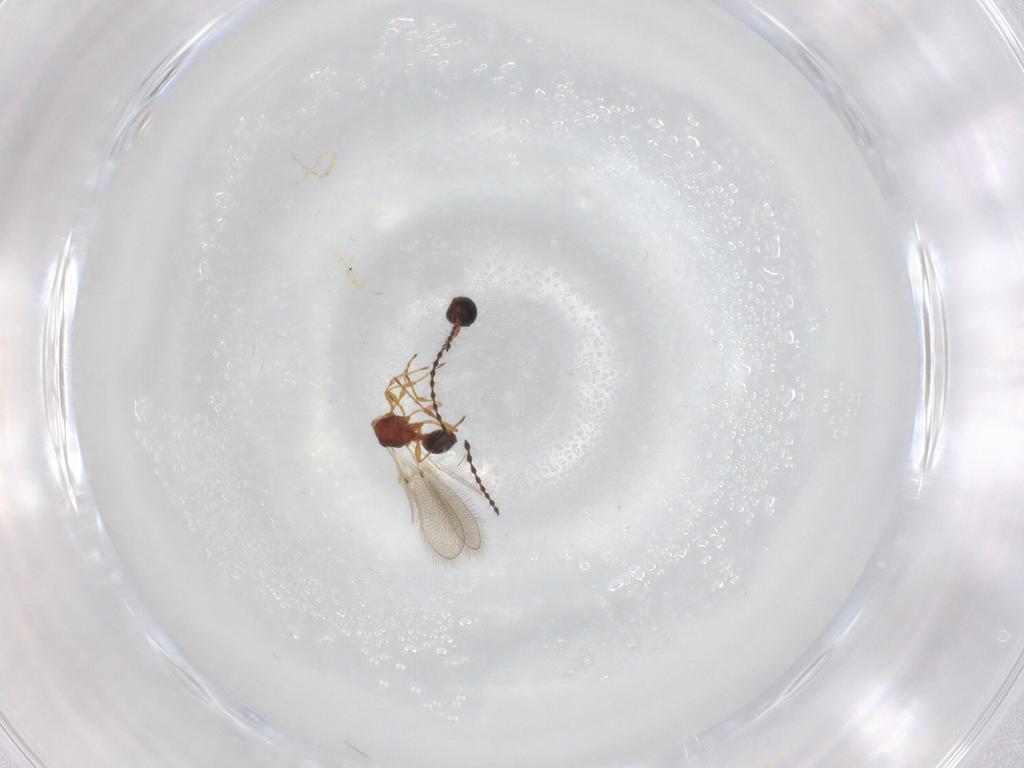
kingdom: Animalia
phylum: Arthropoda
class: Insecta
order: Hymenoptera
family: Diapriidae
